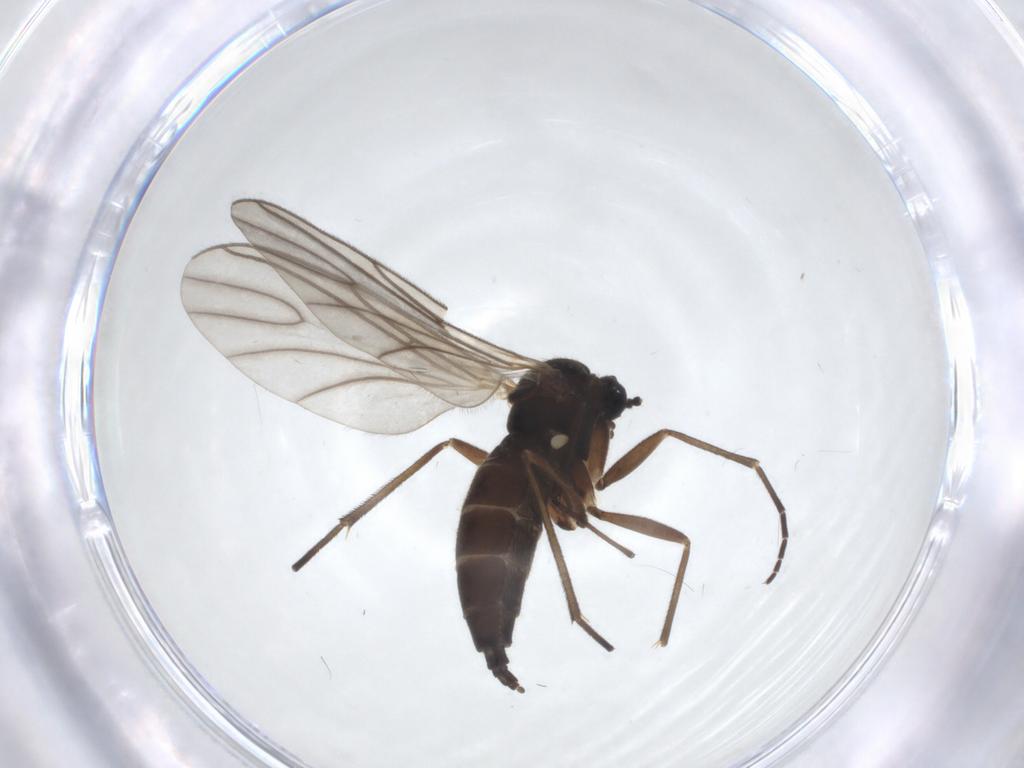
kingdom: Animalia
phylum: Arthropoda
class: Insecta
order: Diptera
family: Sciaridae
